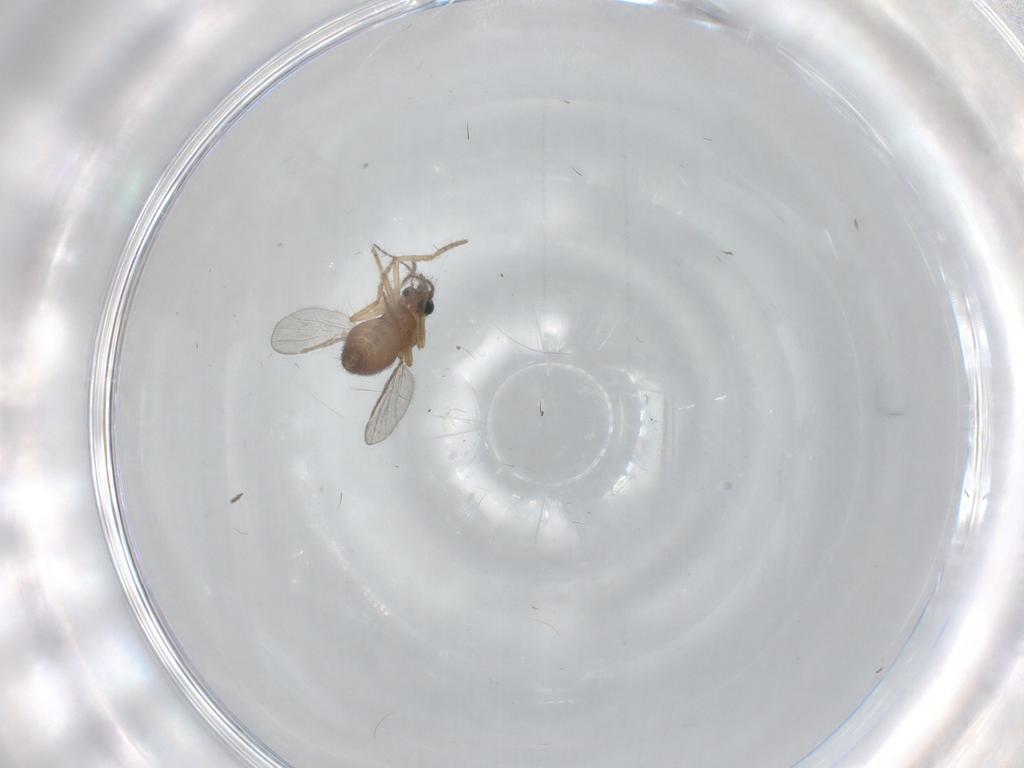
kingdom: Animalia
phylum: Arthropoda
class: Insecta
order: Diptera
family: Ceratopogonidae
